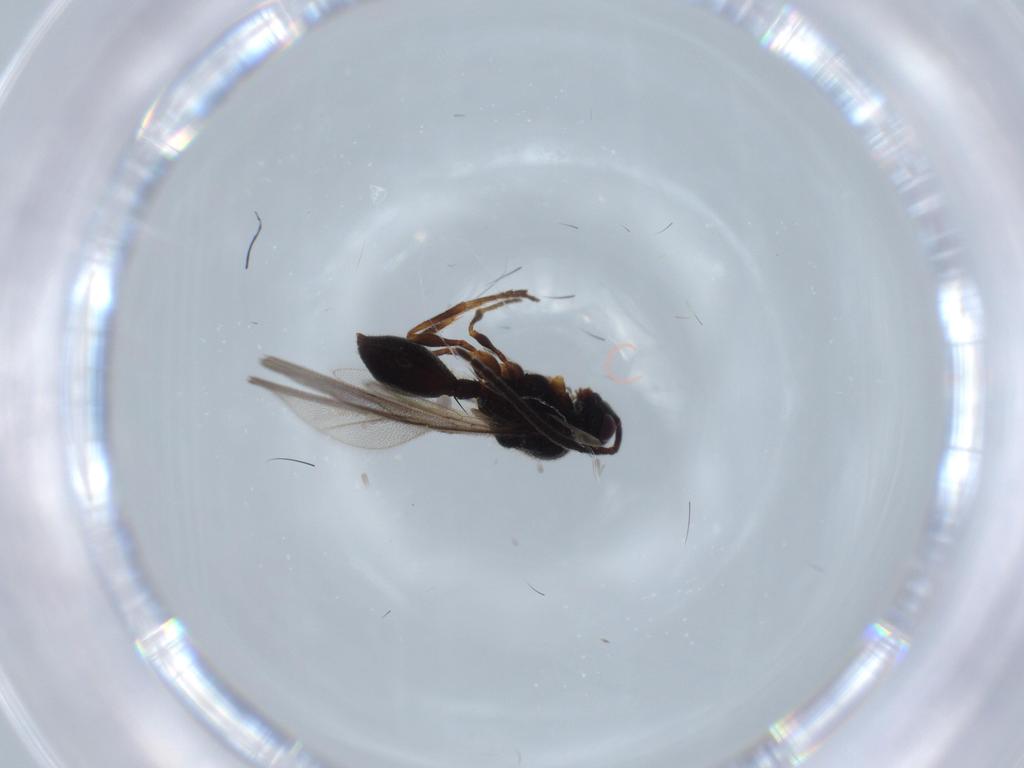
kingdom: Animalia
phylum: Arthropoda
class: Insecta
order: Hymenoptera
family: Diapriidae
